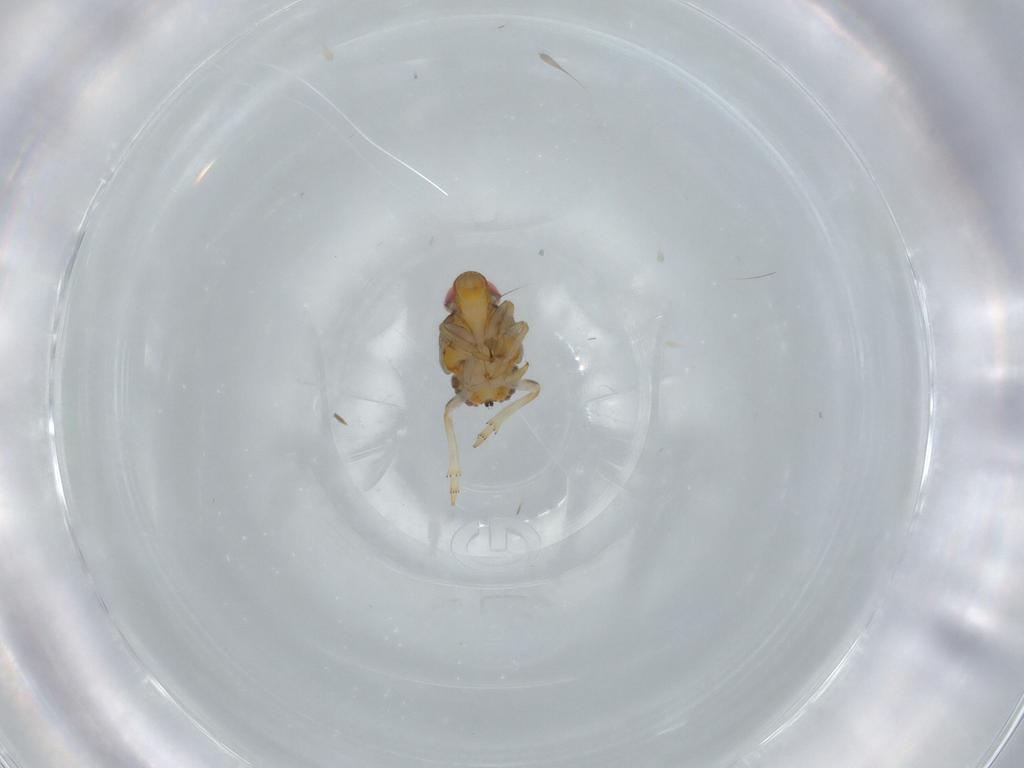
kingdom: Animalia
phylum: Arthropoda
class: Insecta
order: Hemiptera
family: Issidae
